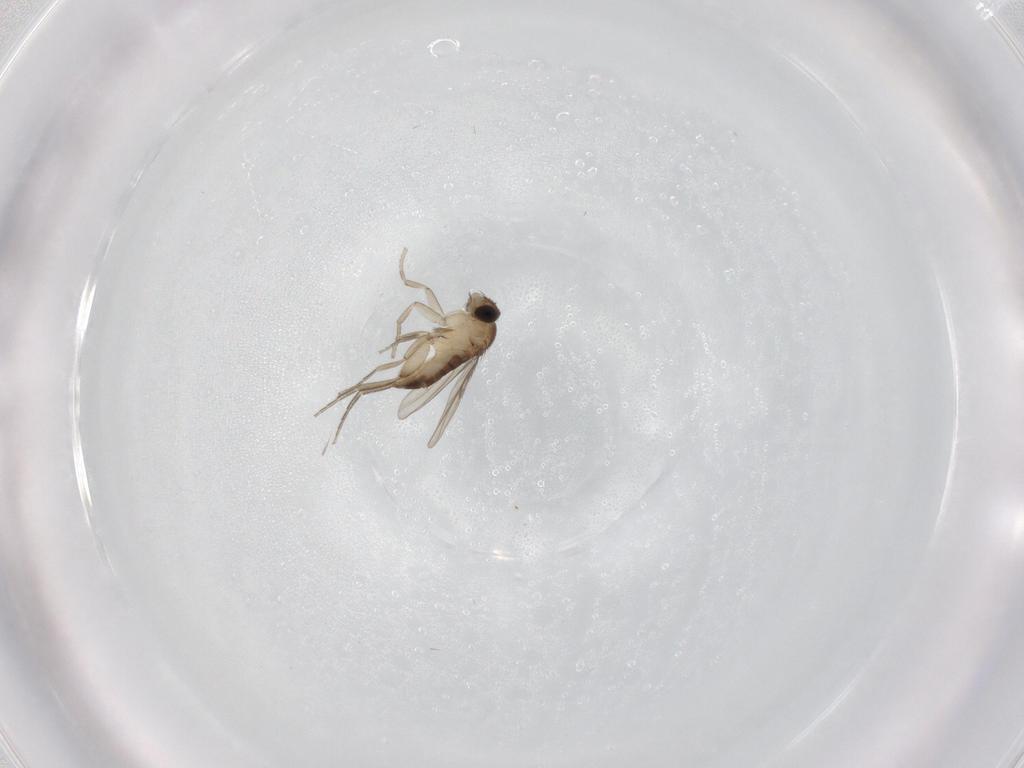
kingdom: Animalia
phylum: Arthropoda
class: Insecta
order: Diptera
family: Phoridae
